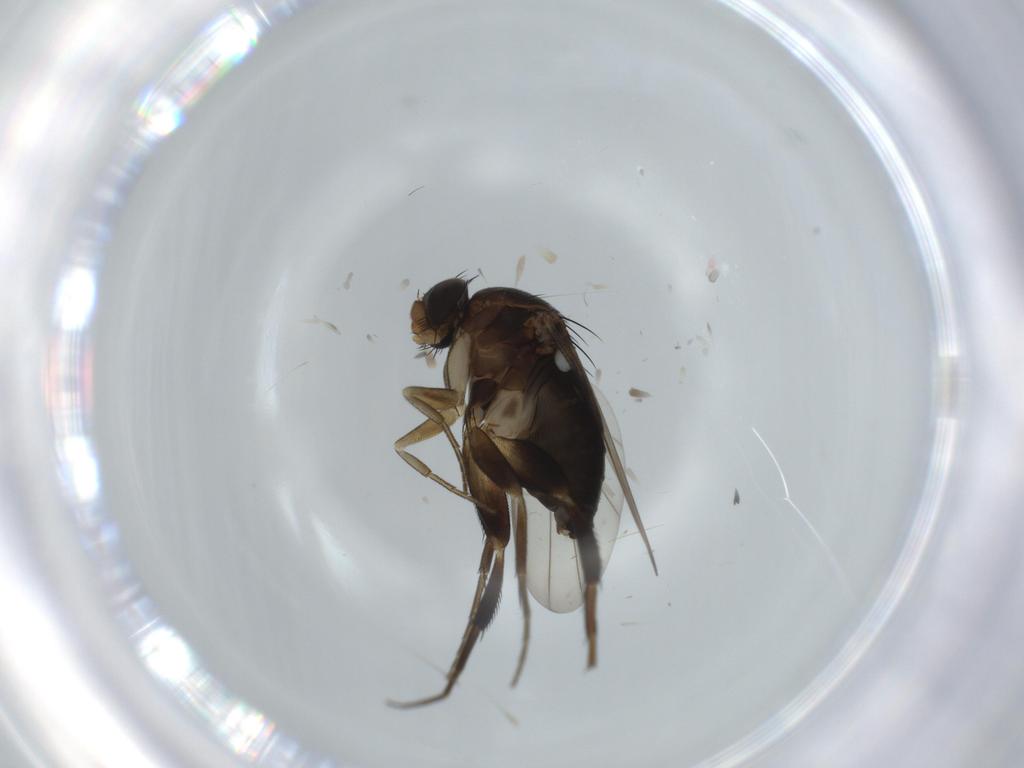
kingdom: Animalia
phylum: Arthropoda
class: Insecta
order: Diptera
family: Phoridae
